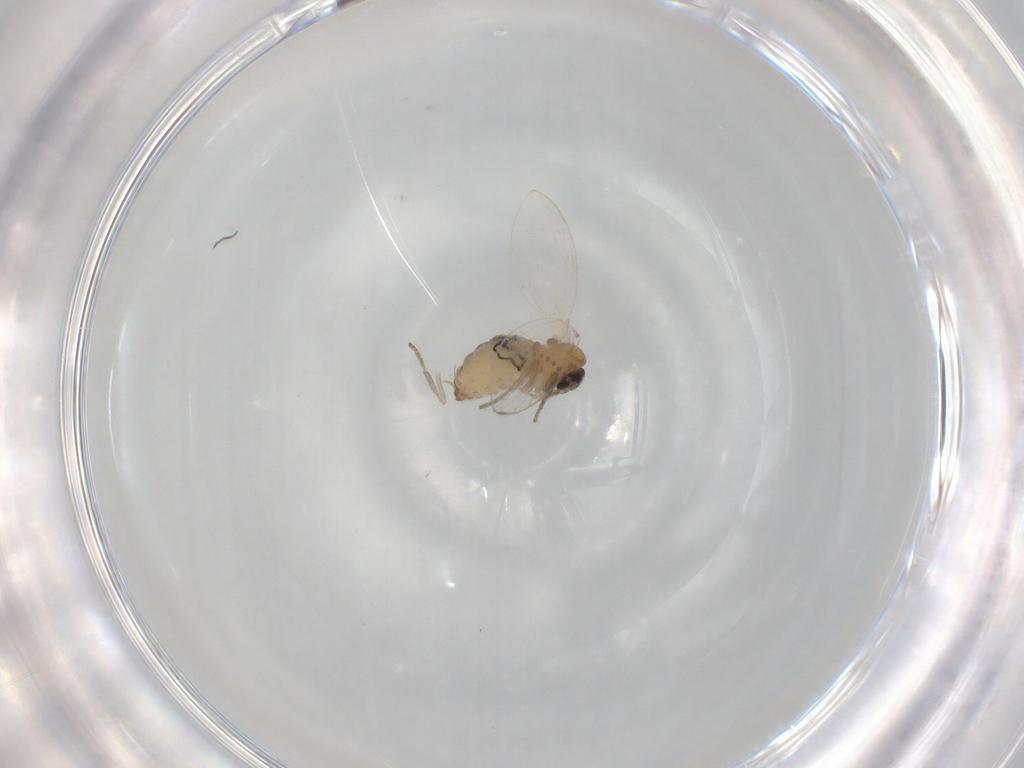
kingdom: Animalia
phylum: Arthropoda
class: Insecta
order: Diptera
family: Psychodidae
